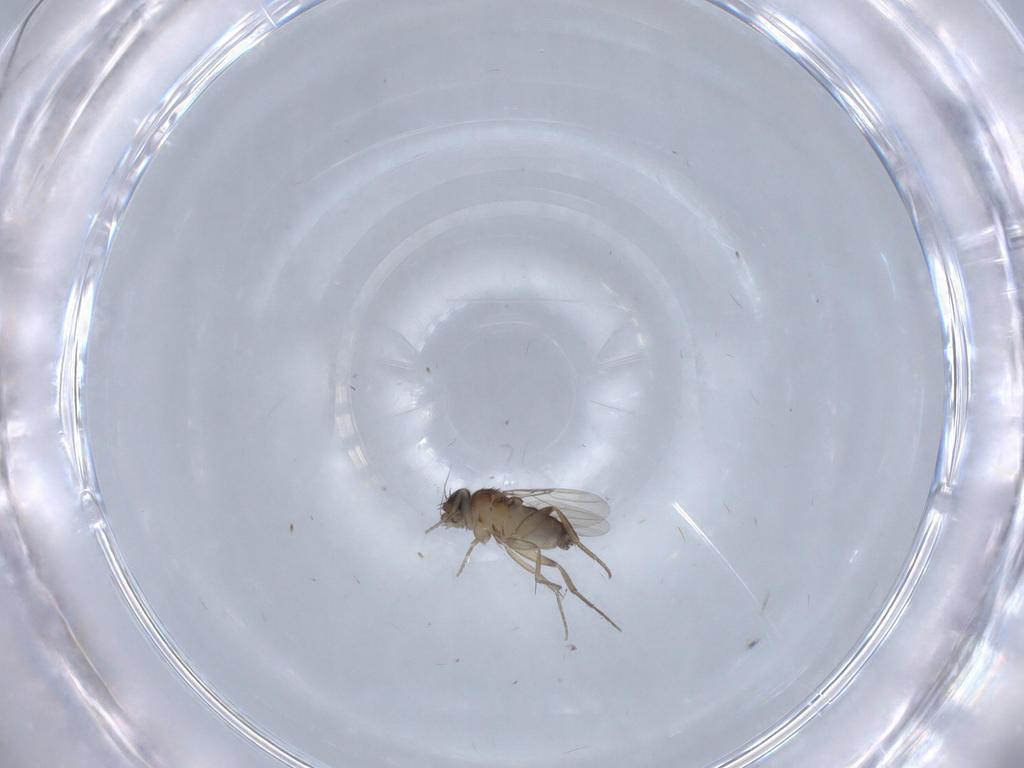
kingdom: Animalia
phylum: Arthropoda
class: Insecta
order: Diptera
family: Phoridae
